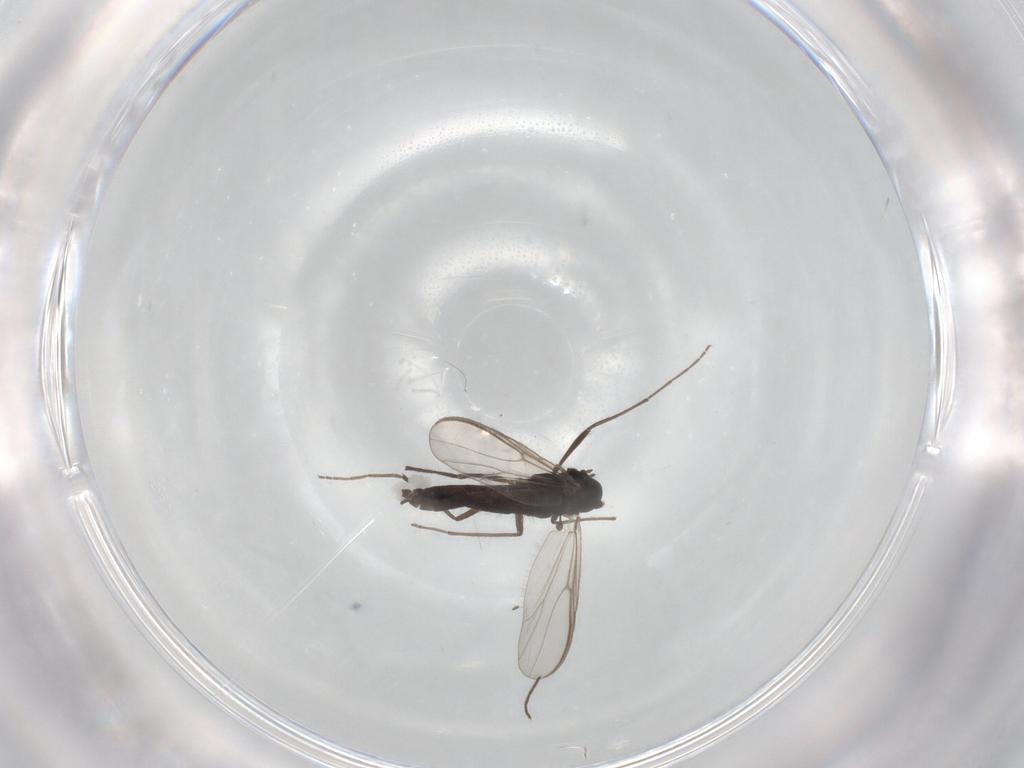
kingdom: Animalia
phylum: Arthropoda
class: Insecta
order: Diptera
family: Chironomidae
